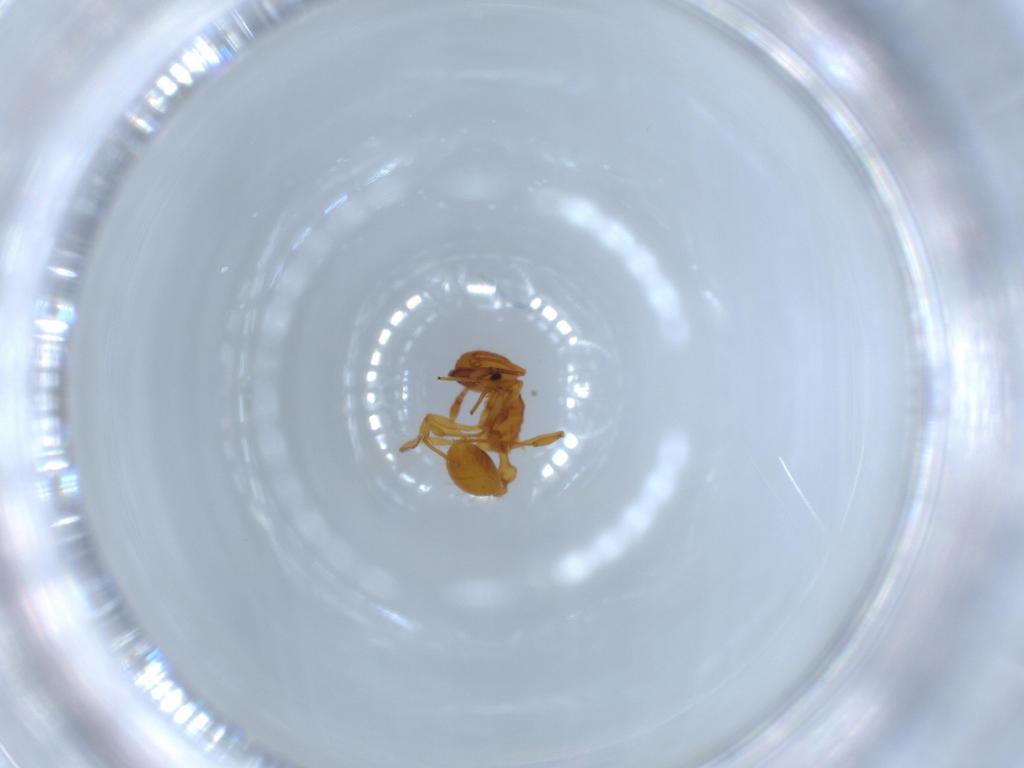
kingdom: Animalia
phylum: Arthropoda
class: Insecta
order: Hymenoptera
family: Formicidae
